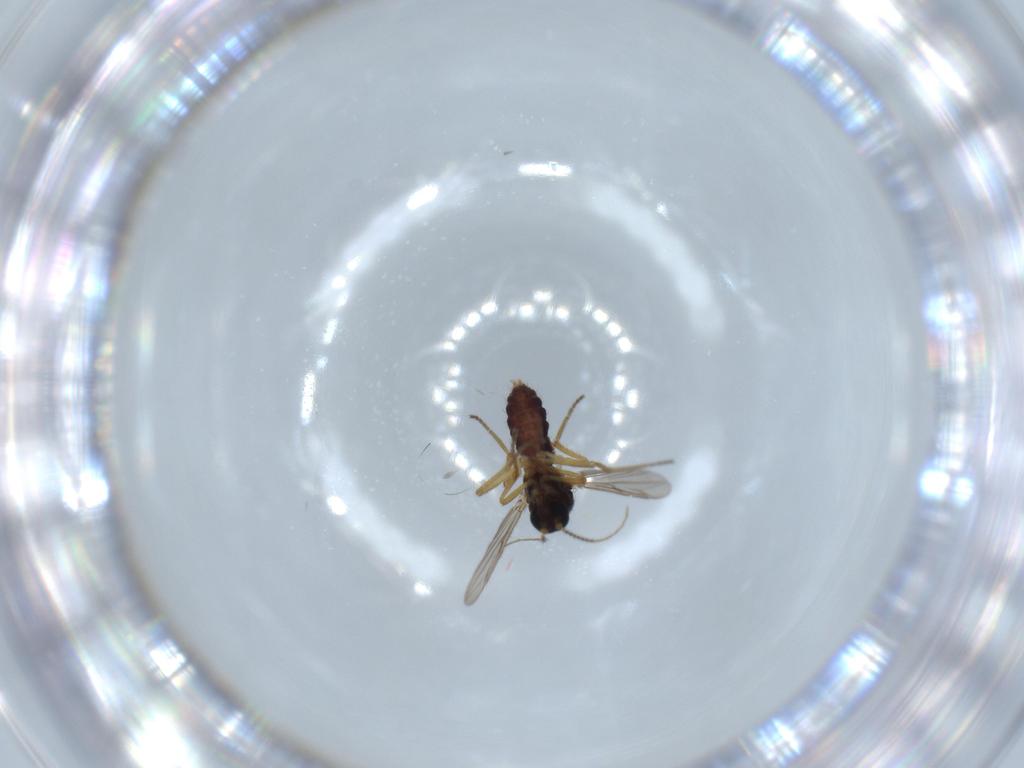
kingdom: Animalia
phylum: Arthropoda
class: Insecta
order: Diptera
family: Ceratopogonidae
